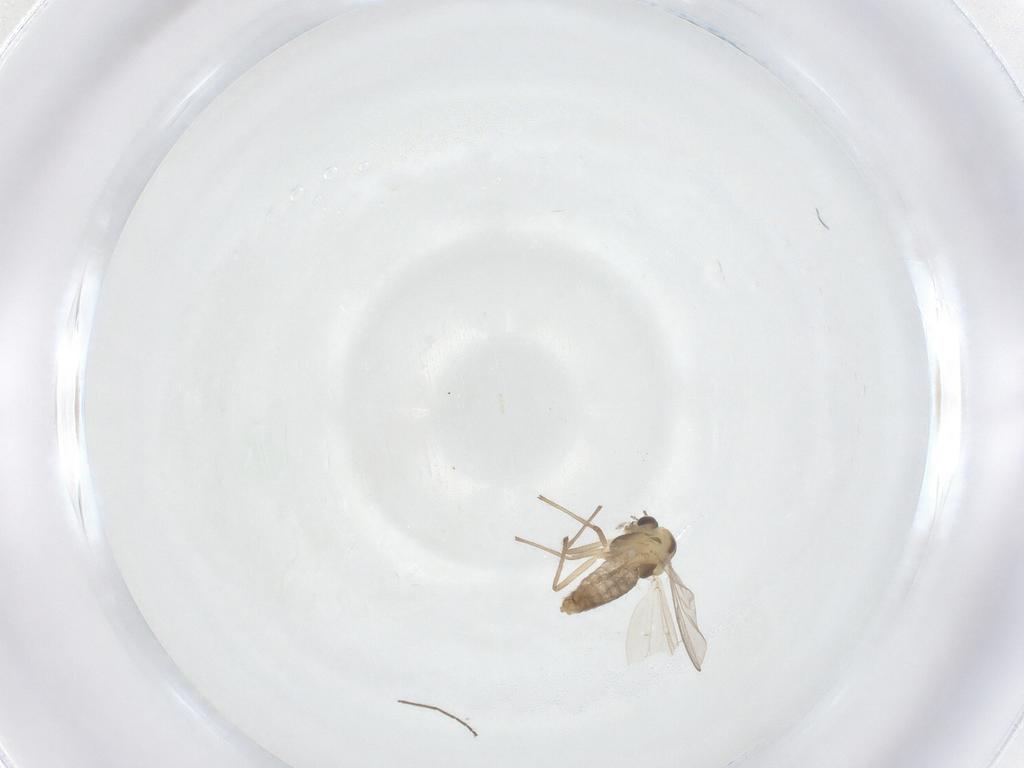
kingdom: Animalia
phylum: Arthropoda
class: Insecta
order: Diptera
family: Chironomidae
